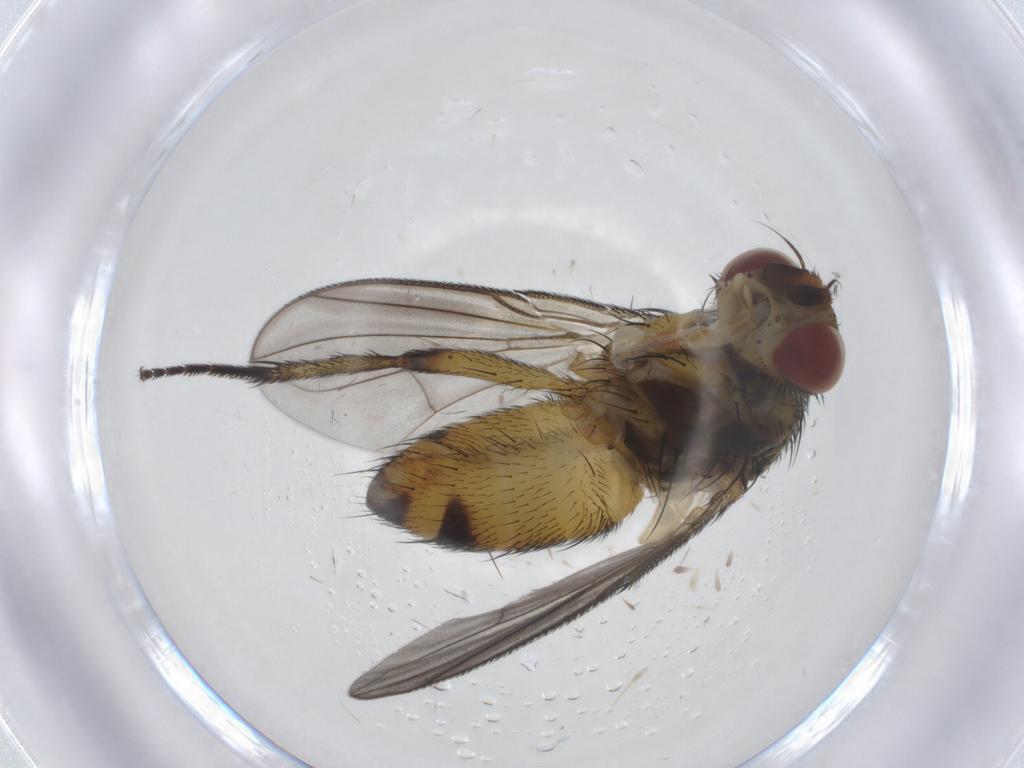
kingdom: Animalia
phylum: Arthropoda
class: Insecta
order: Diptera
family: Tachinidae
